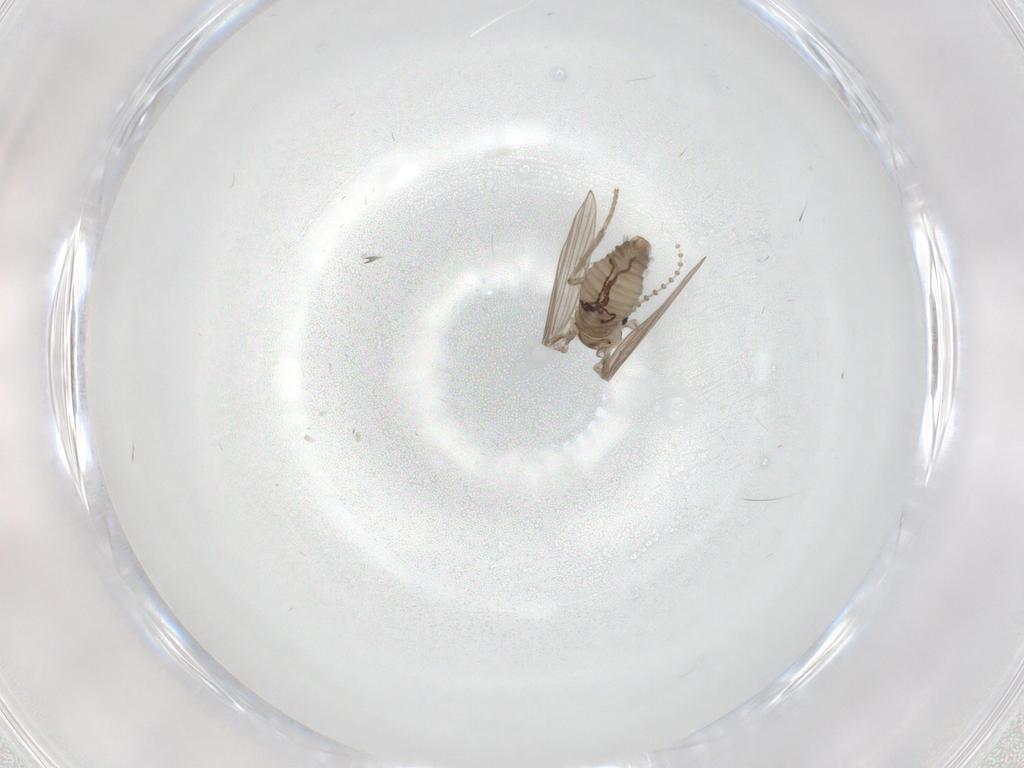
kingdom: Animalia
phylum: Arthropoda
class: Insecta
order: Diptera
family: Psychodidae
